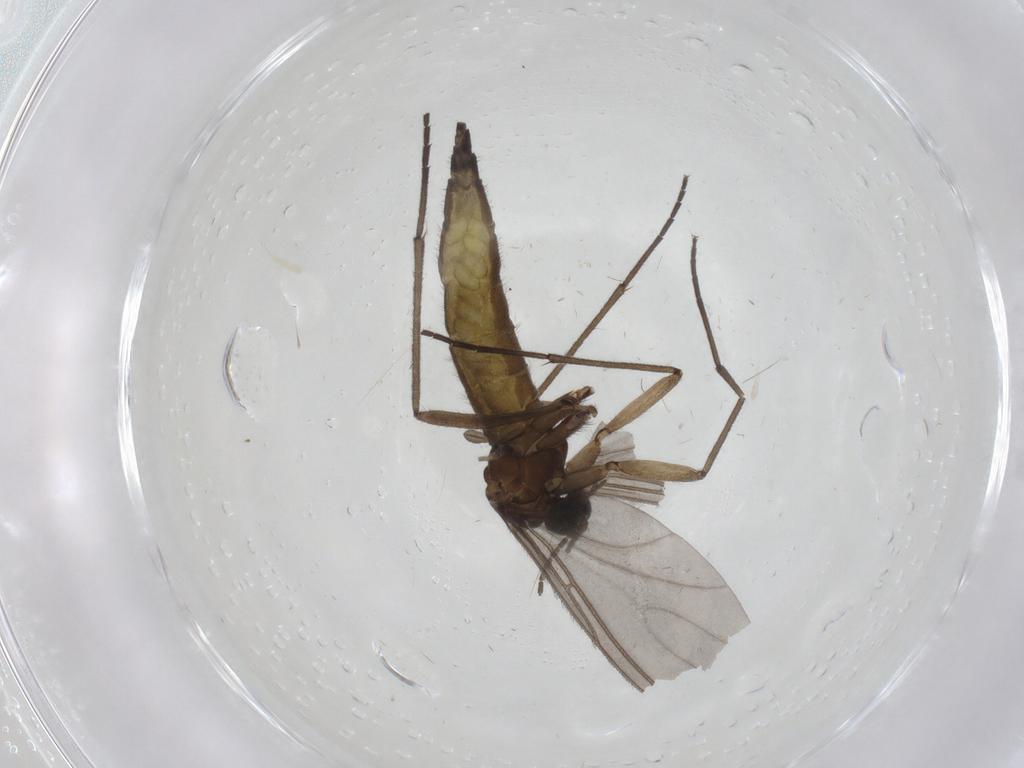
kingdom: Animalia
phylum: Arthropoda
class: Insecta
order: Diptera
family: Sciaridae
